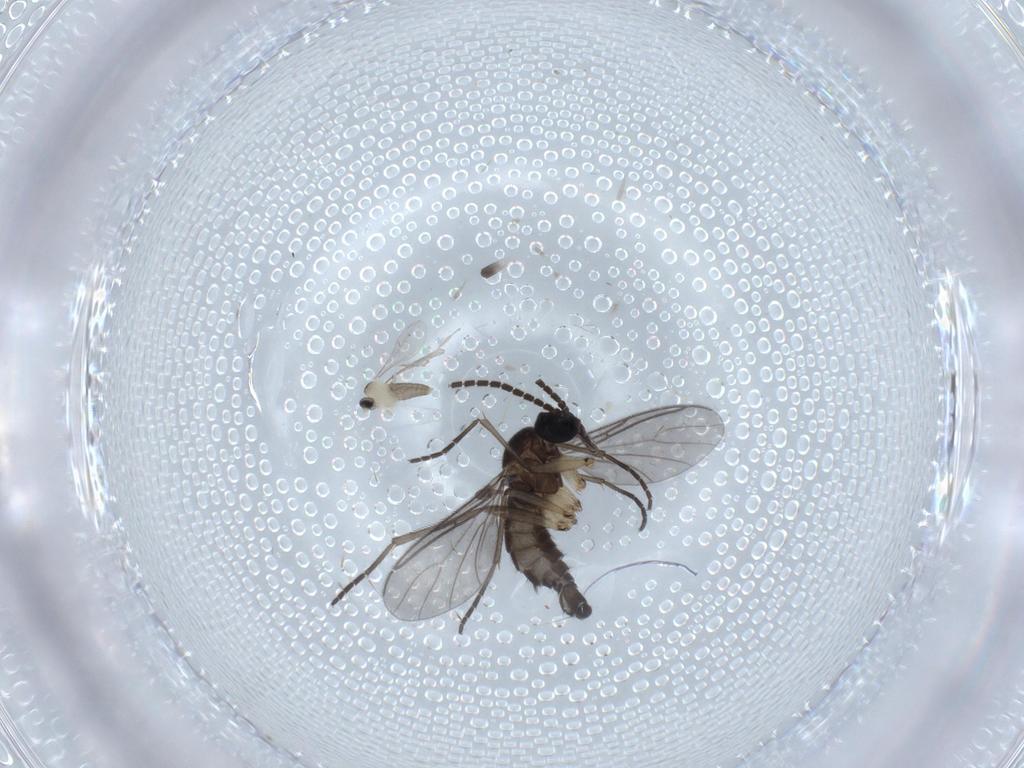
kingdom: Animalia
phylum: Arthropoda
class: Insecta
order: Diptera
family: Sciaridae
